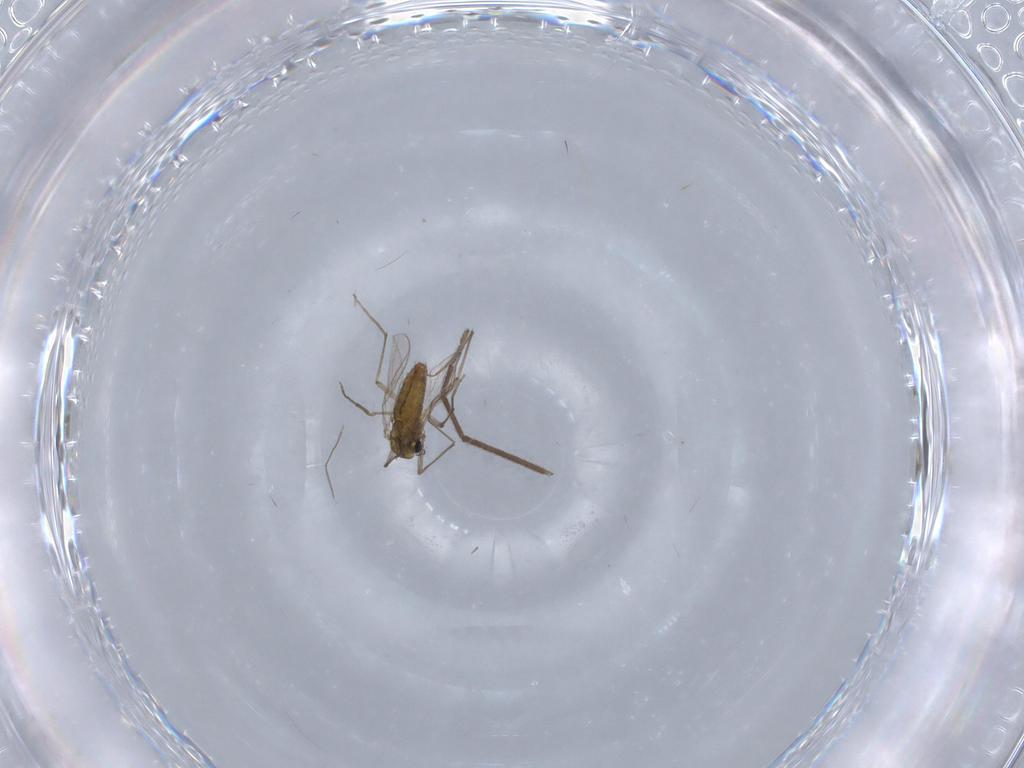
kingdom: Animalia
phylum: Arthropoda
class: Insecta
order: Diptera
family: Chironomidae
